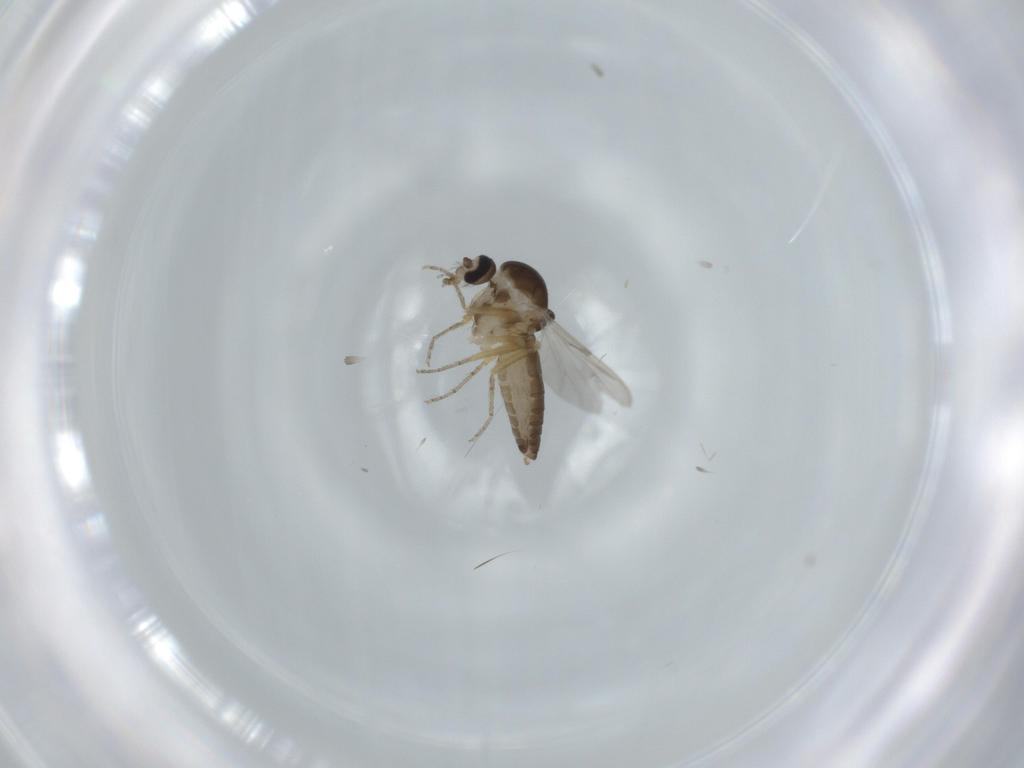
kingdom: Animalia
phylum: Arthropoda
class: Insecta
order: Diptera
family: Ceratopogonidae
